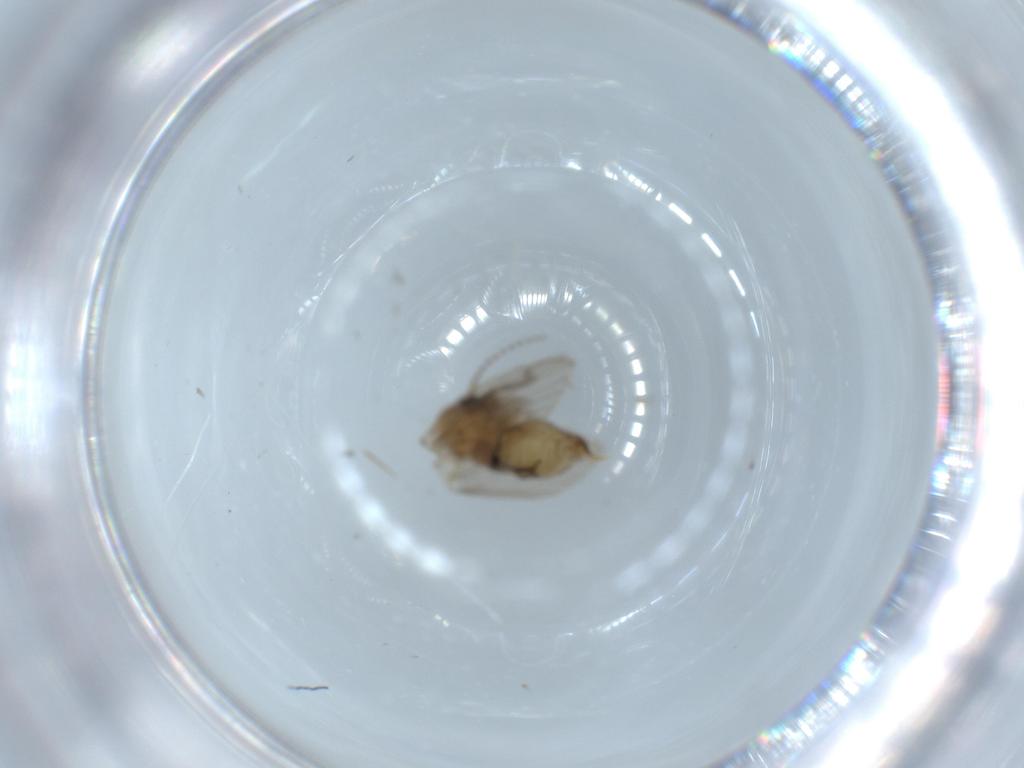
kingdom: Animalia
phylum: Arthropoda
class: Insecta
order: Diptera
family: Psychodidae
